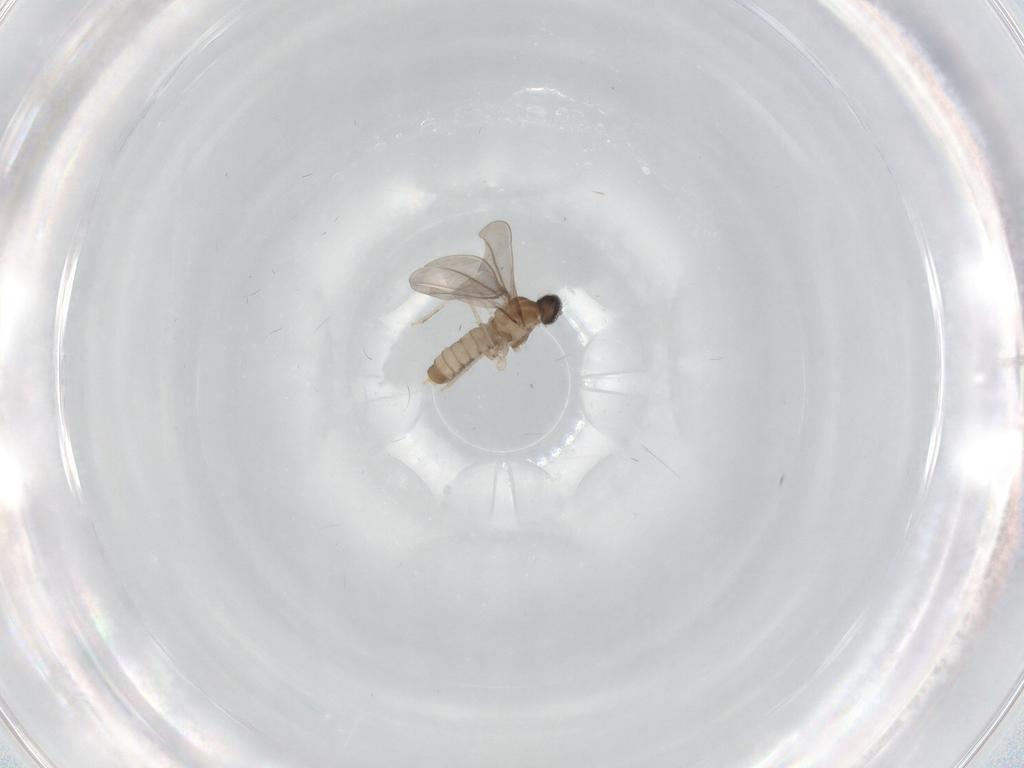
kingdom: Animalia
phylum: Arthropoda
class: Insecta
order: Diptera
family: Cecidomyiidae
